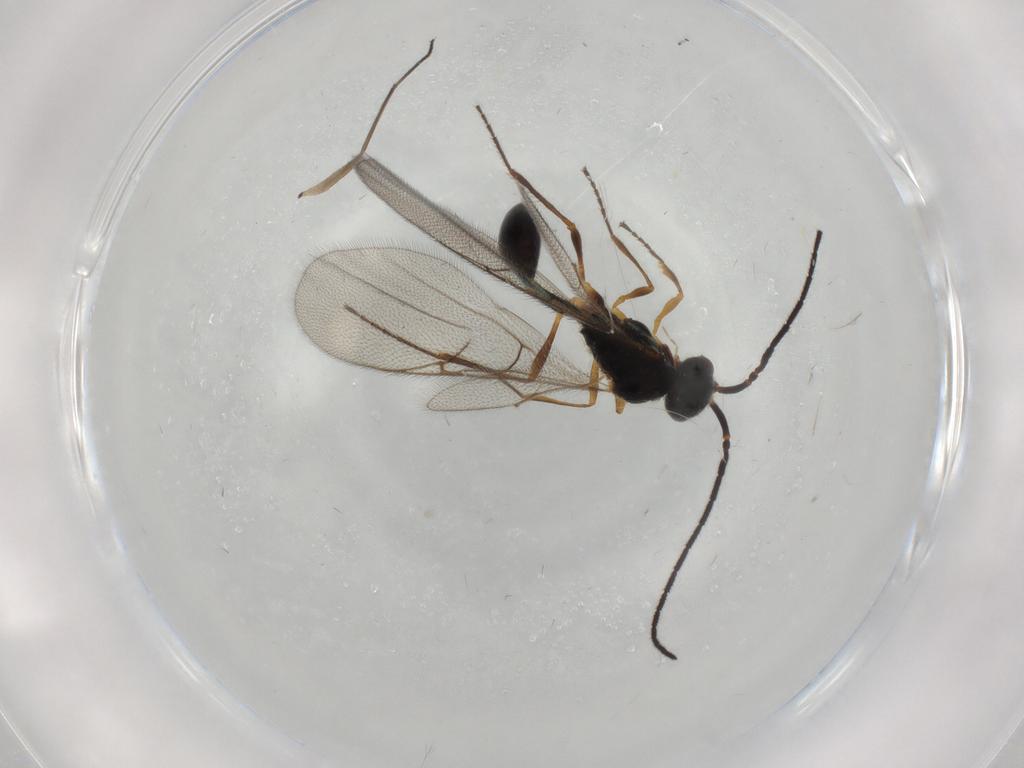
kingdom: Animalia
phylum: Arthropoda
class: Insecta
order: Hymenoptera
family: Diapriidae
